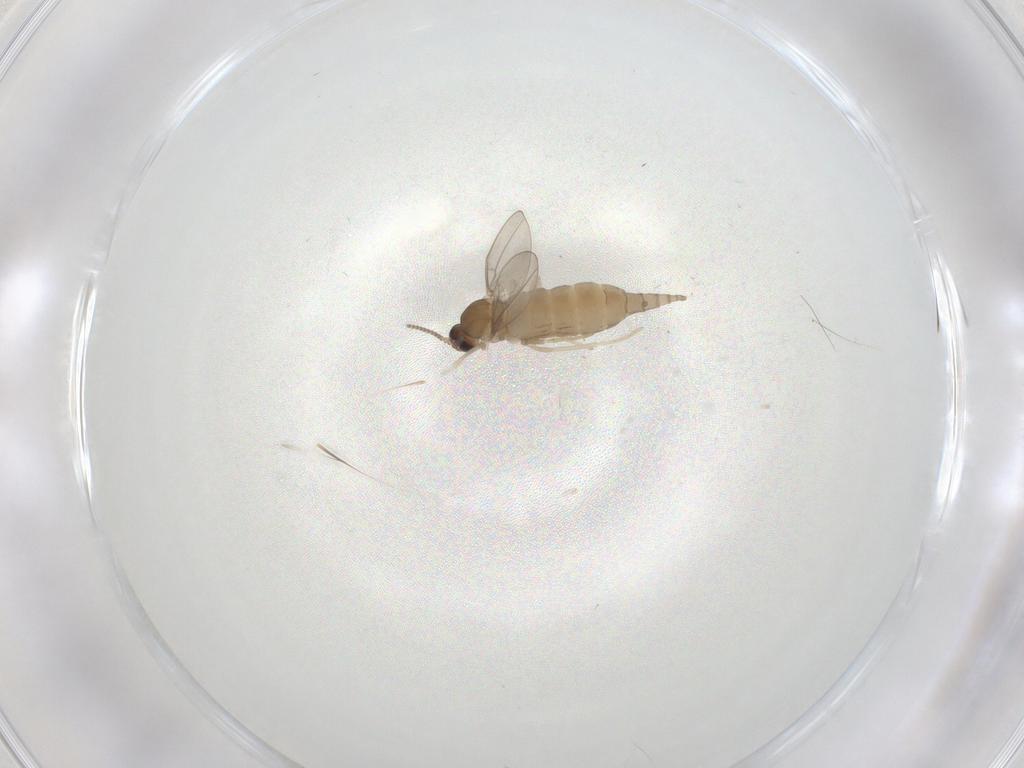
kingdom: Animalia
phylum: Arthropoda
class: Insecta
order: Diptera
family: Cecidomyiidae
